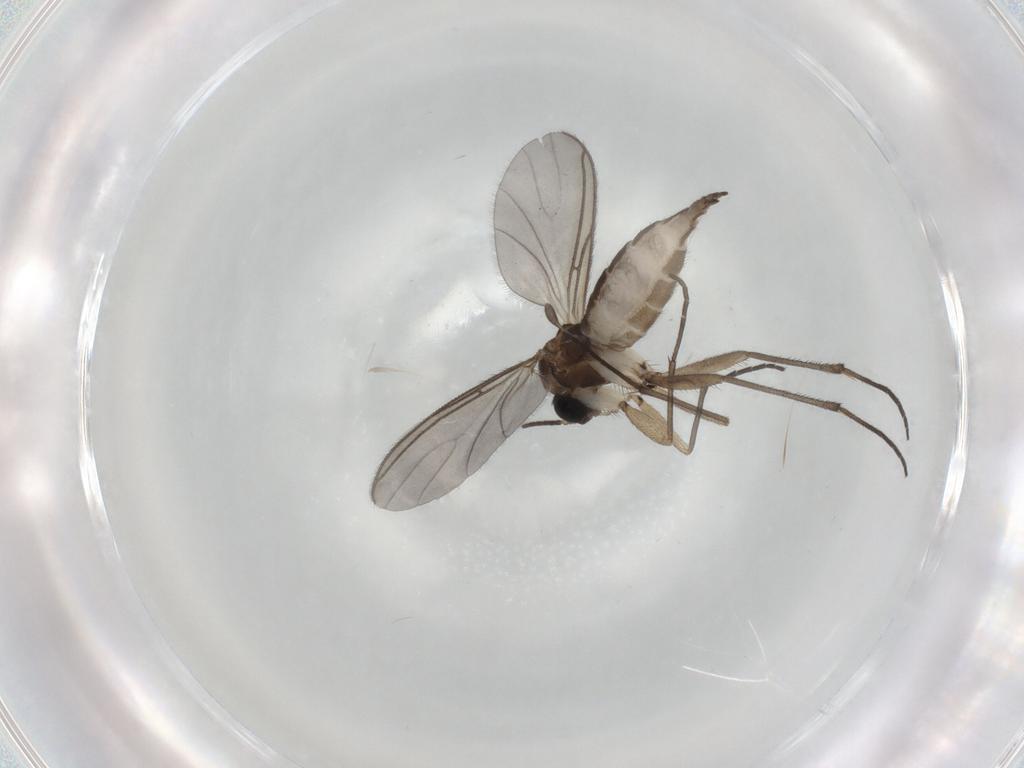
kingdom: Animalia
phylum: Arthropoda
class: Insecta
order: Diptera
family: Sciaridae
